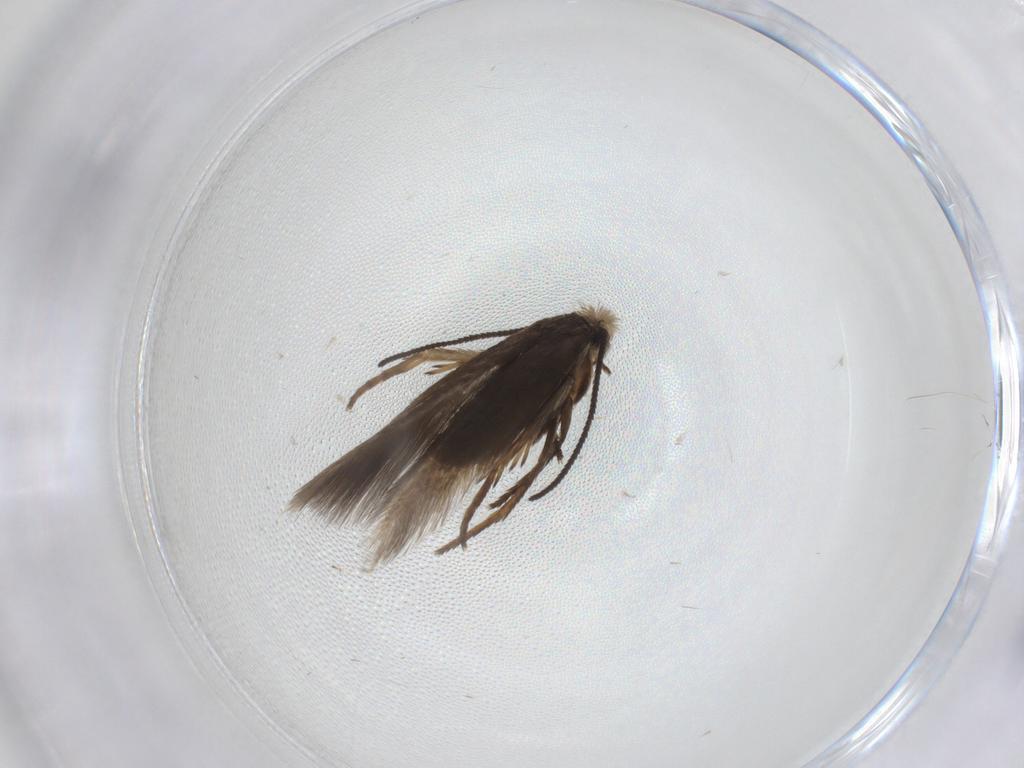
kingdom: Animalia
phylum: Arthropoda
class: Insecta
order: Lepidoptera
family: Nepticulidae
